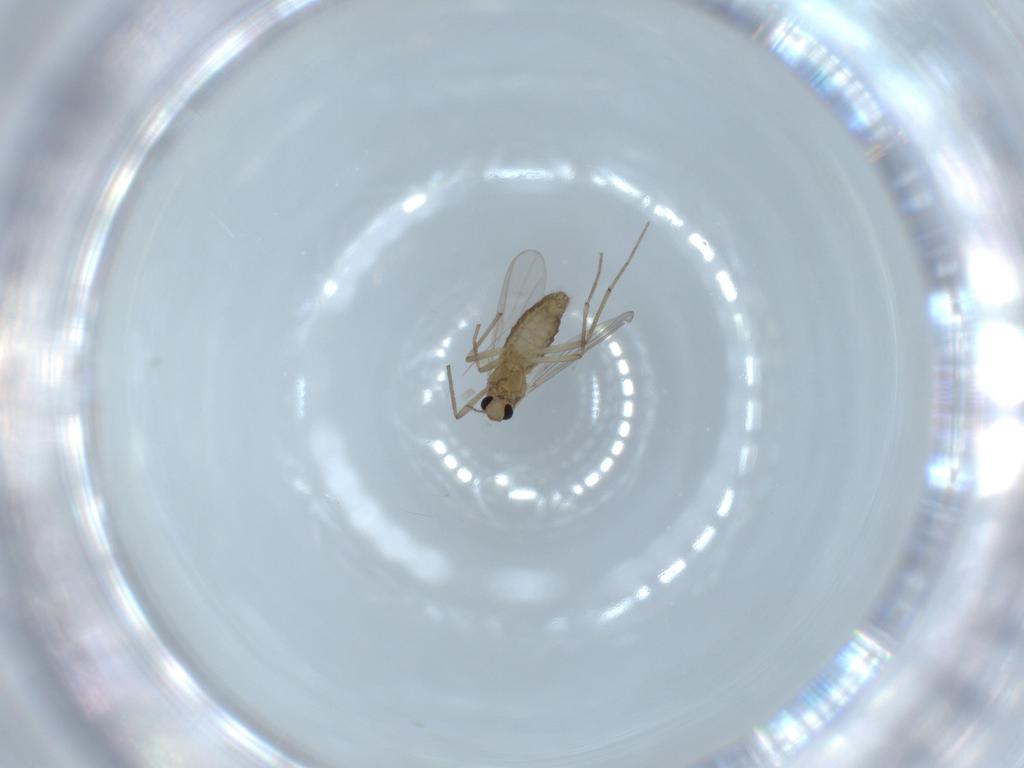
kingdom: Animalia
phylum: Arthropoda
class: Insecta
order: Diptera
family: Chironomidae
